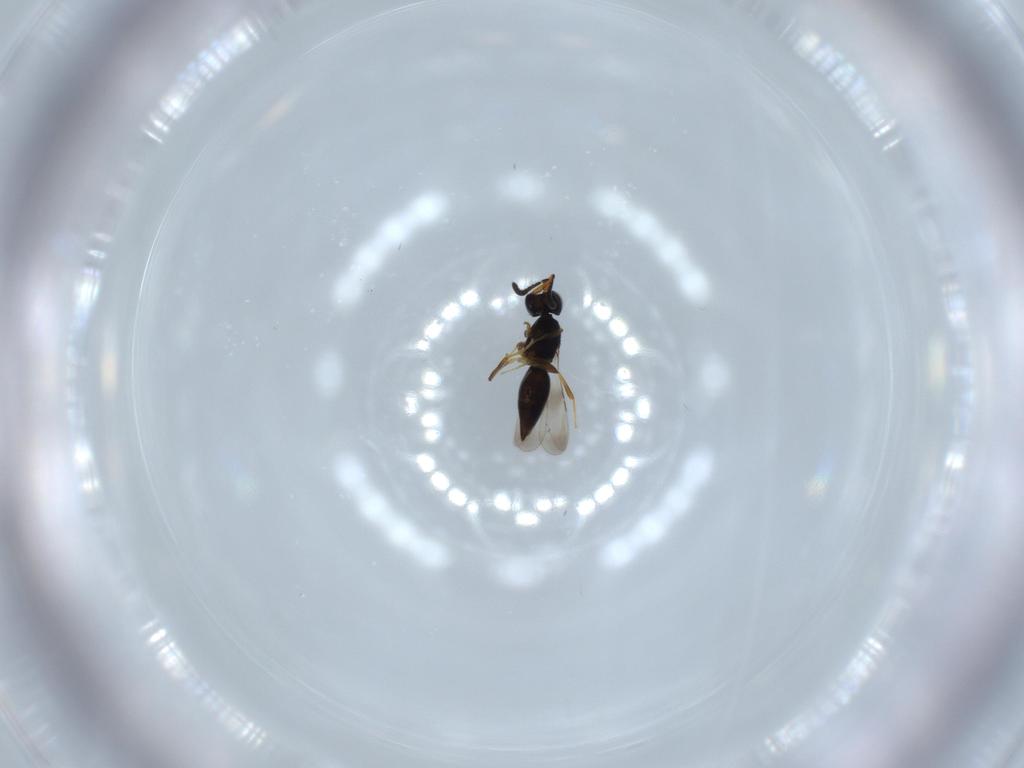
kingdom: Animalia
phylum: Arthropoda
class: Insecta
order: Hymenoptera
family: Ceraphronidae
